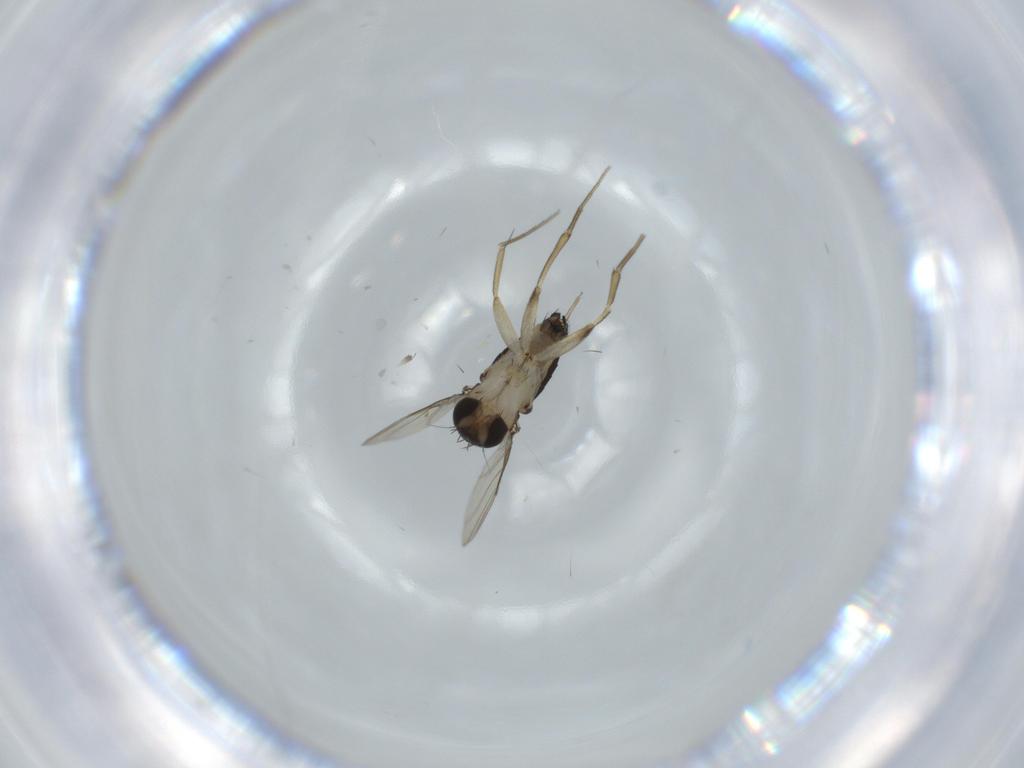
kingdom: Animalia
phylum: Arthropoda
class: Insecta
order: Diptera
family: Phoridae
